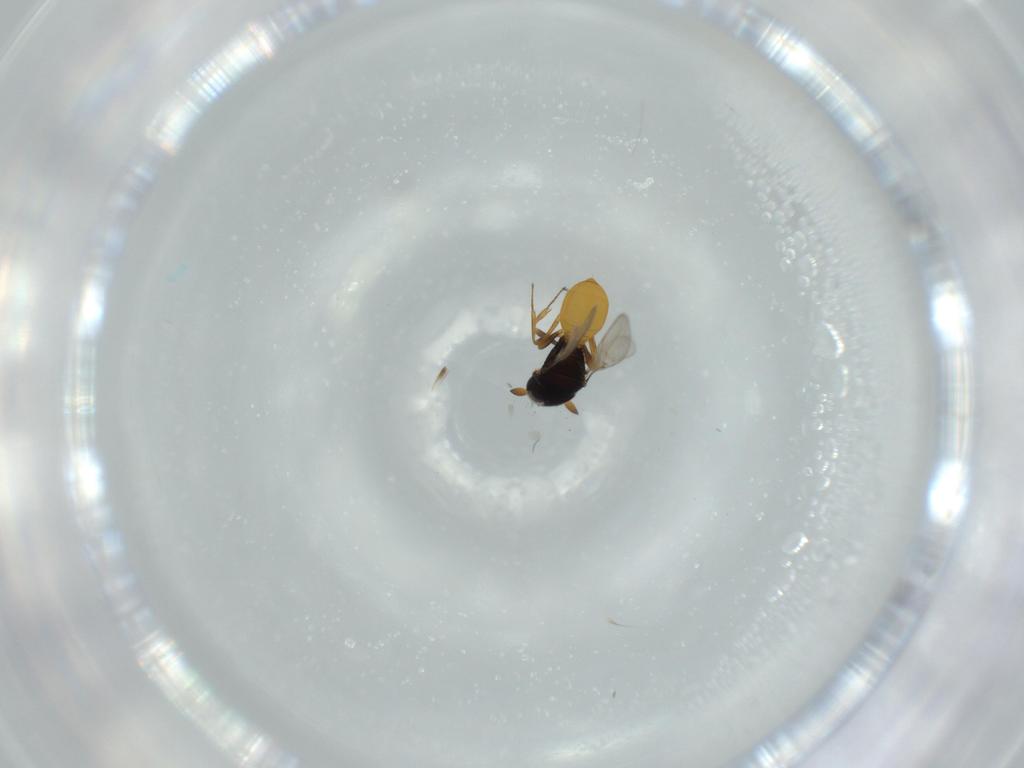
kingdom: Animalia
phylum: Arthropoda
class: Insecta
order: Hymenoptera
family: Scelionidae
